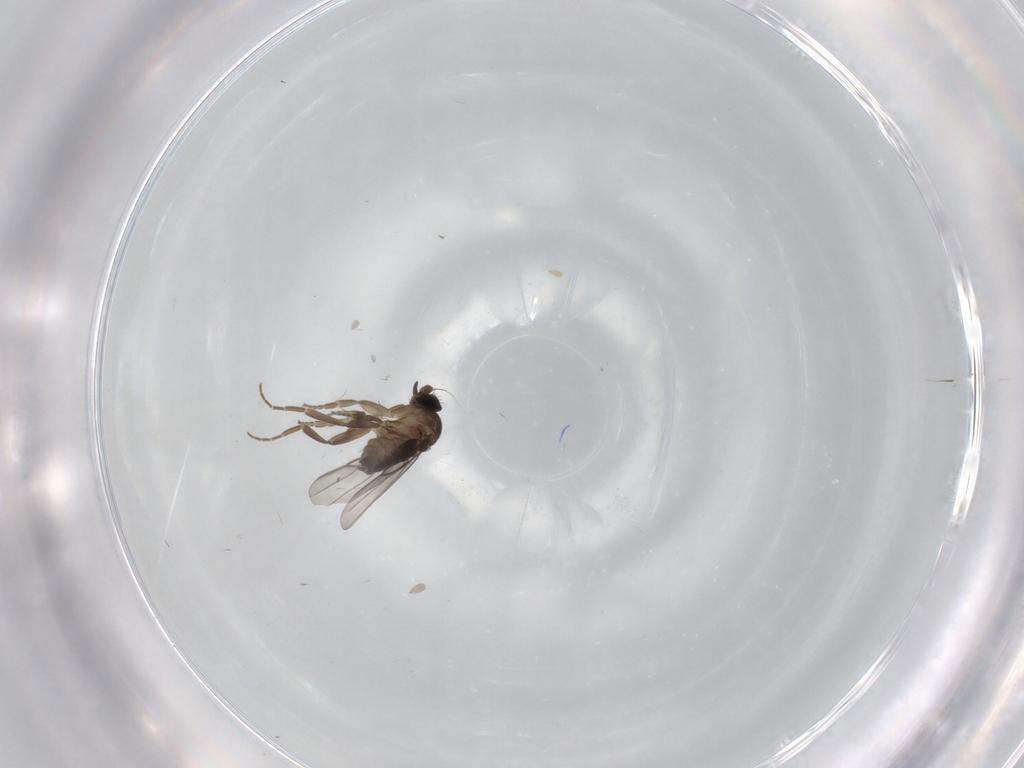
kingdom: Animalia
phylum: Arthropoda
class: Insecta
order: Diptera
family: Phoridae
